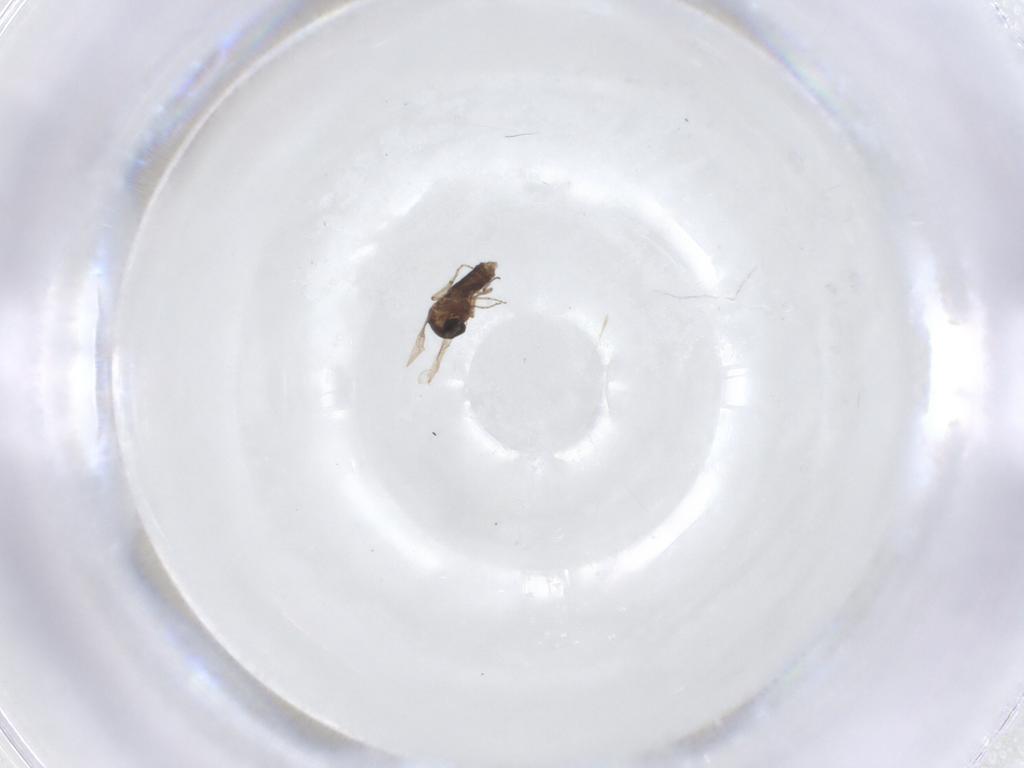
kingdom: Animalia
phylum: Arthropoda
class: Insecta
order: Diptera
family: Ceratopogonidae
